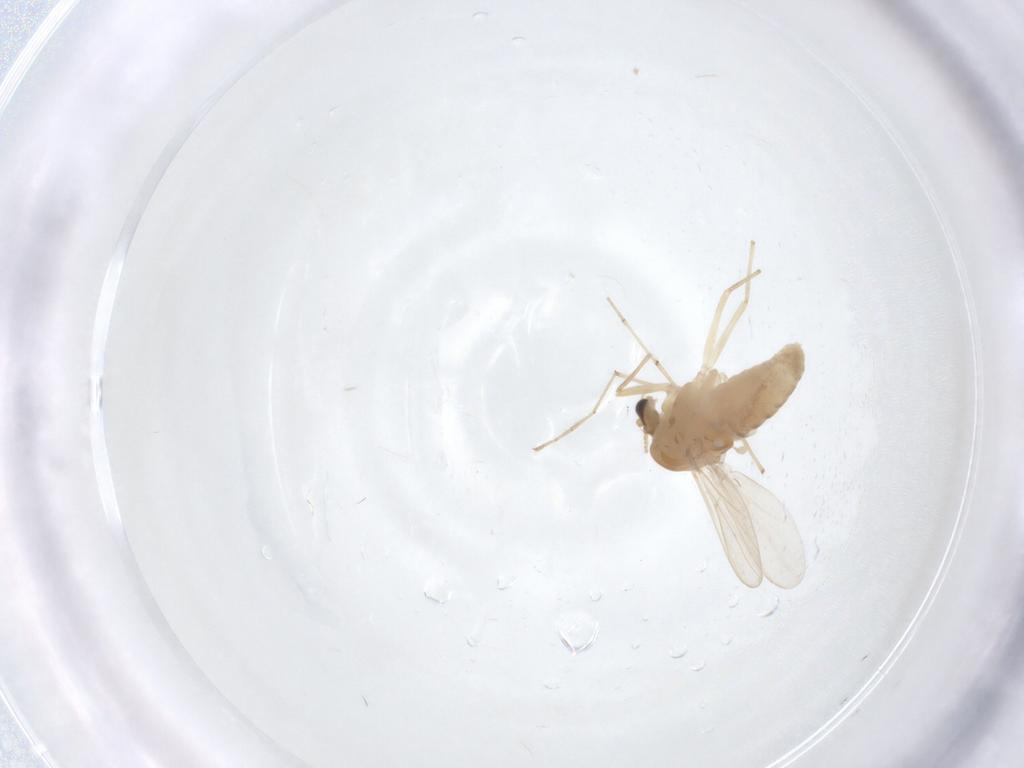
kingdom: Animalia
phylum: Arthropoda
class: Insecta
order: Diptera
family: Chironomidae
